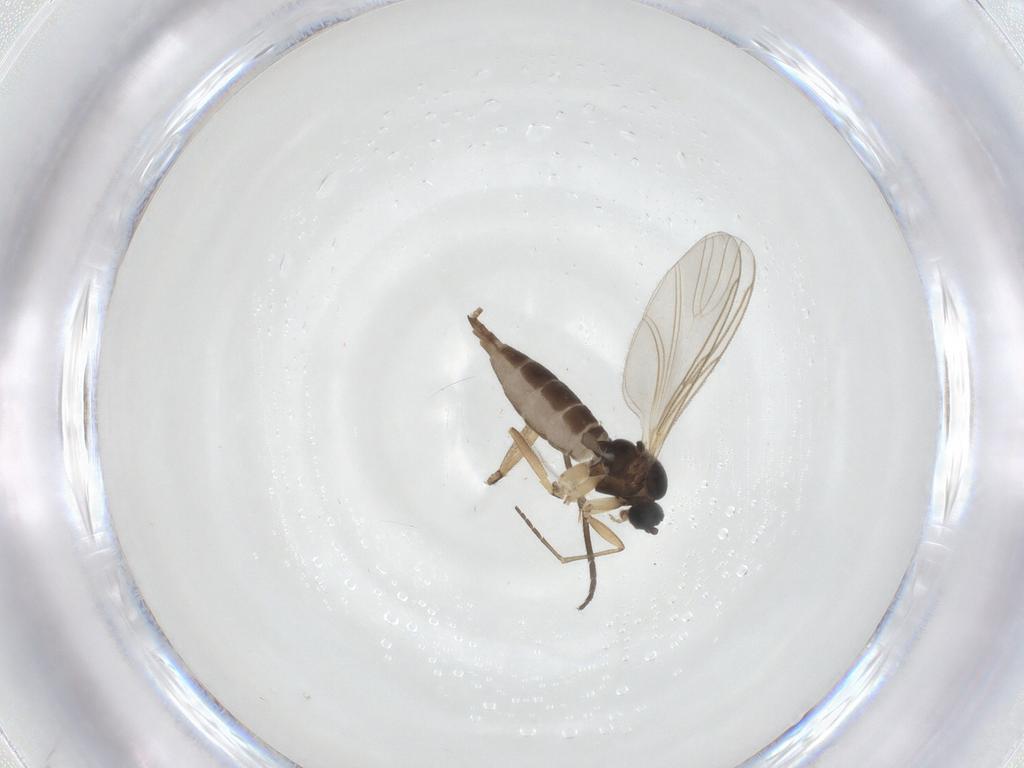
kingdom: Animalia
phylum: Arthropoda
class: Insecta
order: Diptera
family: Sciaridae
